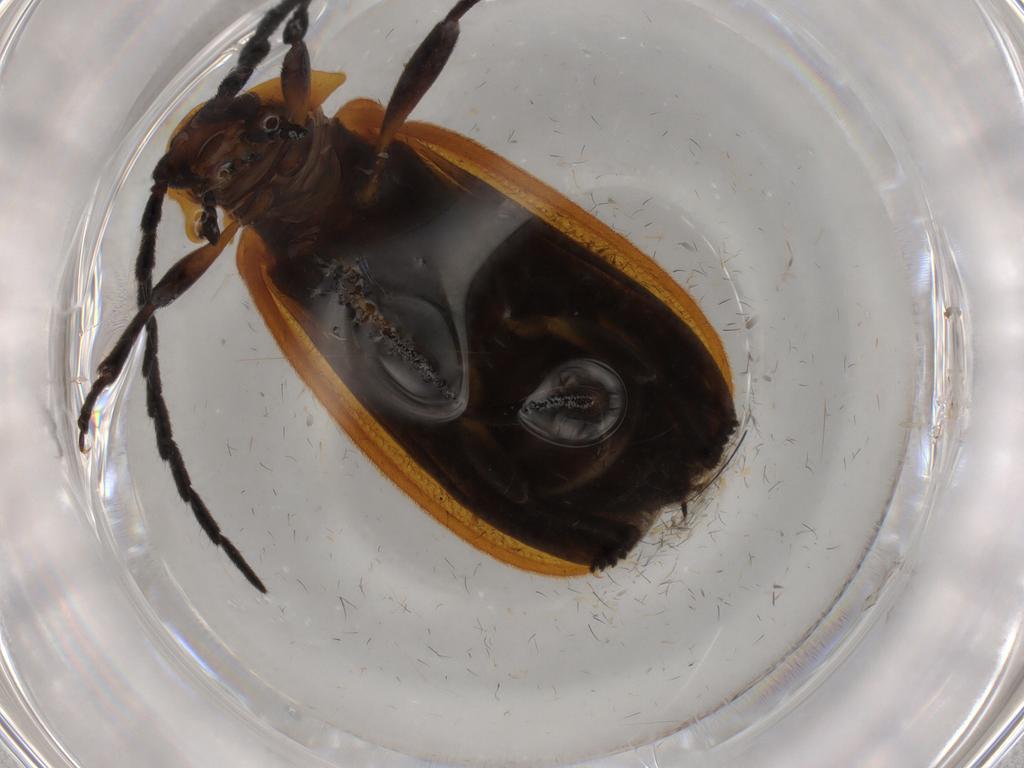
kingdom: Animalia
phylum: Arthropoda
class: Insecta
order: Coleoptera
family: Lycidae
